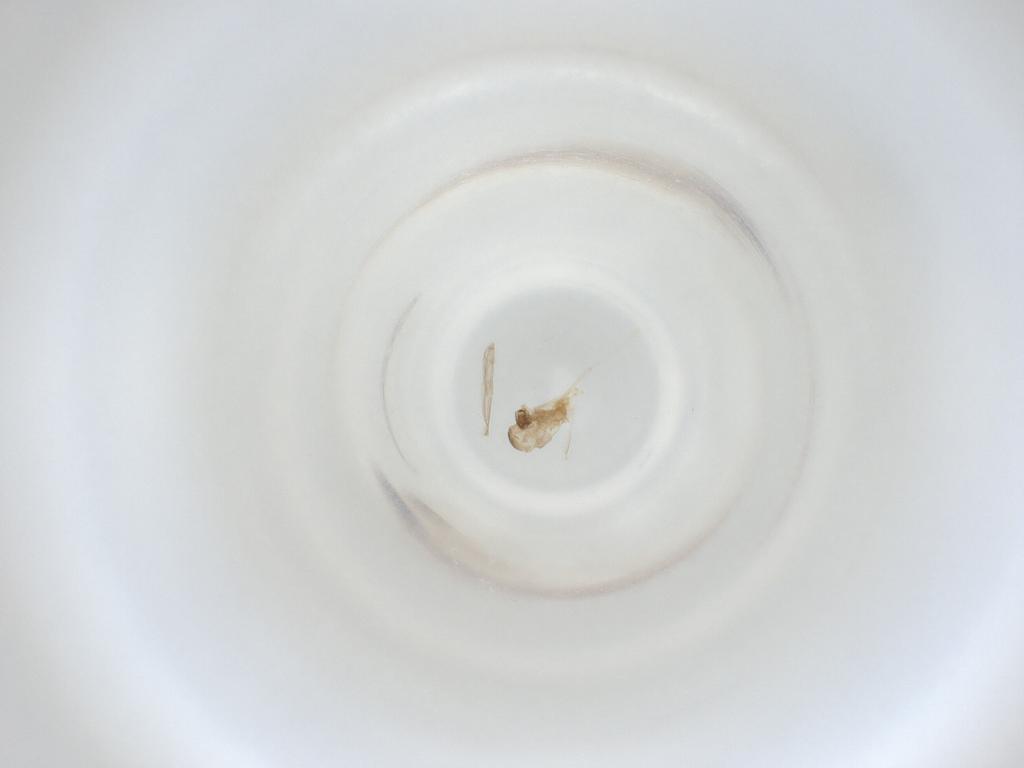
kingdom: Animalia
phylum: Arthropoda
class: Insecta
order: Diptera
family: Cecidomyiidae
